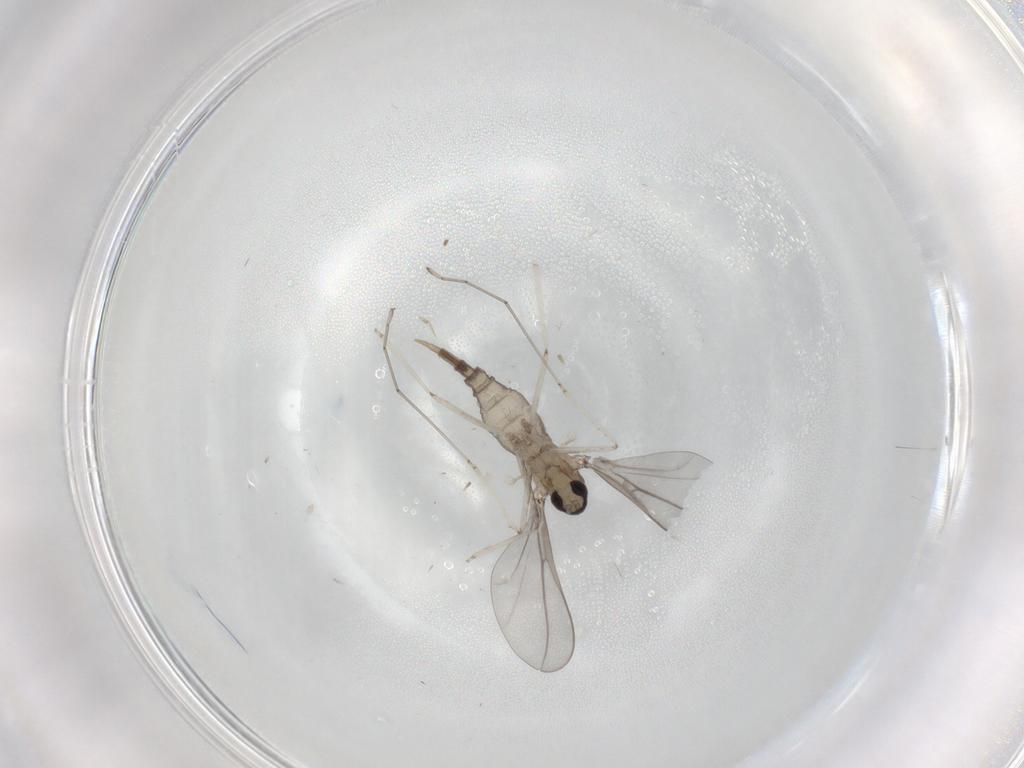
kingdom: Animalia
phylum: Arthropoda
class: Insecta
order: Diptera
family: Cecidomyiidae
